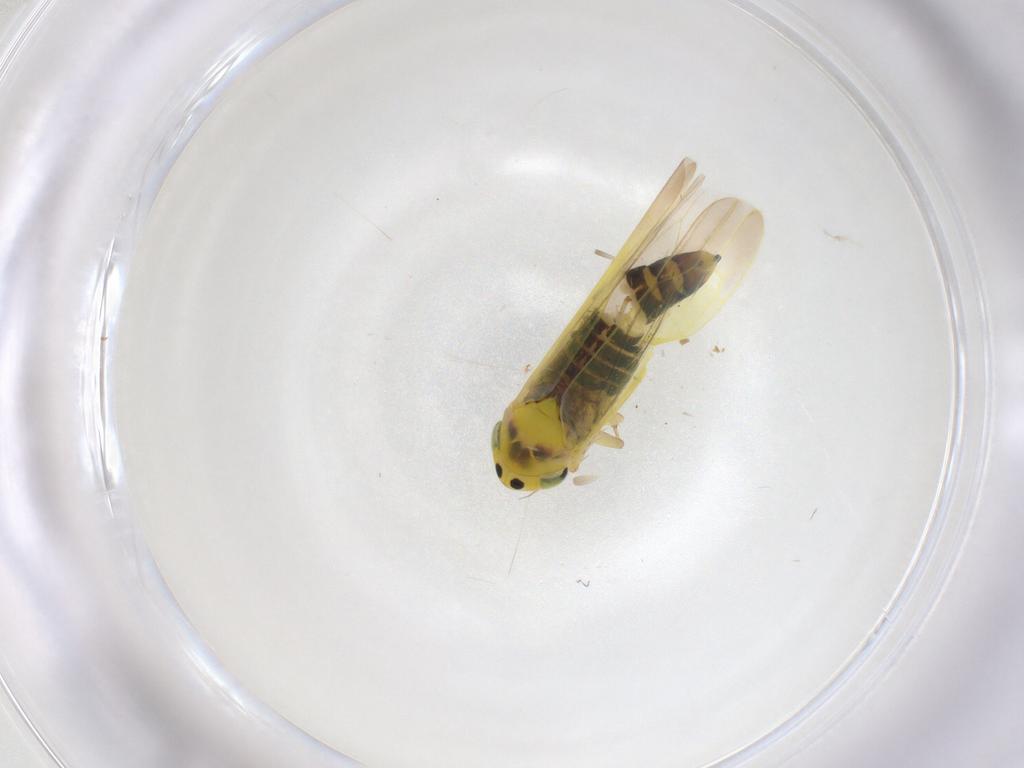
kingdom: Animalia
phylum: Arthropoda
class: Insecta
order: Hemiptera
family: Cicadellidae
